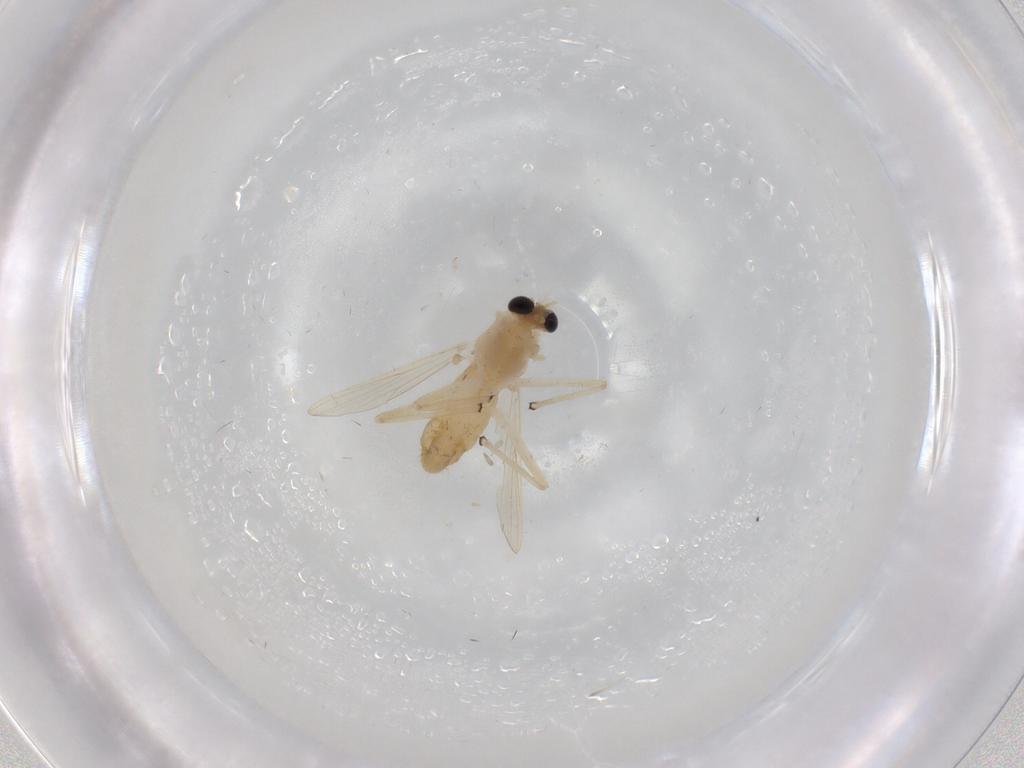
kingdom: Animalia
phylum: Arthropoda
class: Insecta
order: Diptera
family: Chironomidae
